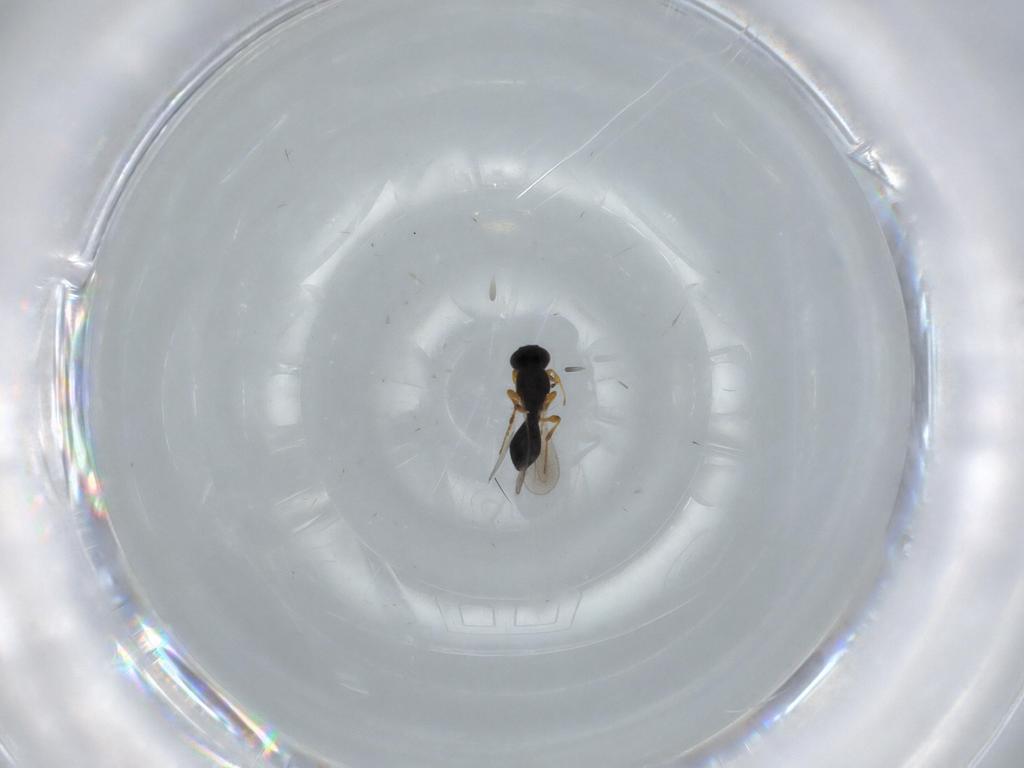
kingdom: Animalia
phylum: Arthropoda
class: Insecta
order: Hymenoptera
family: Platygastridae
